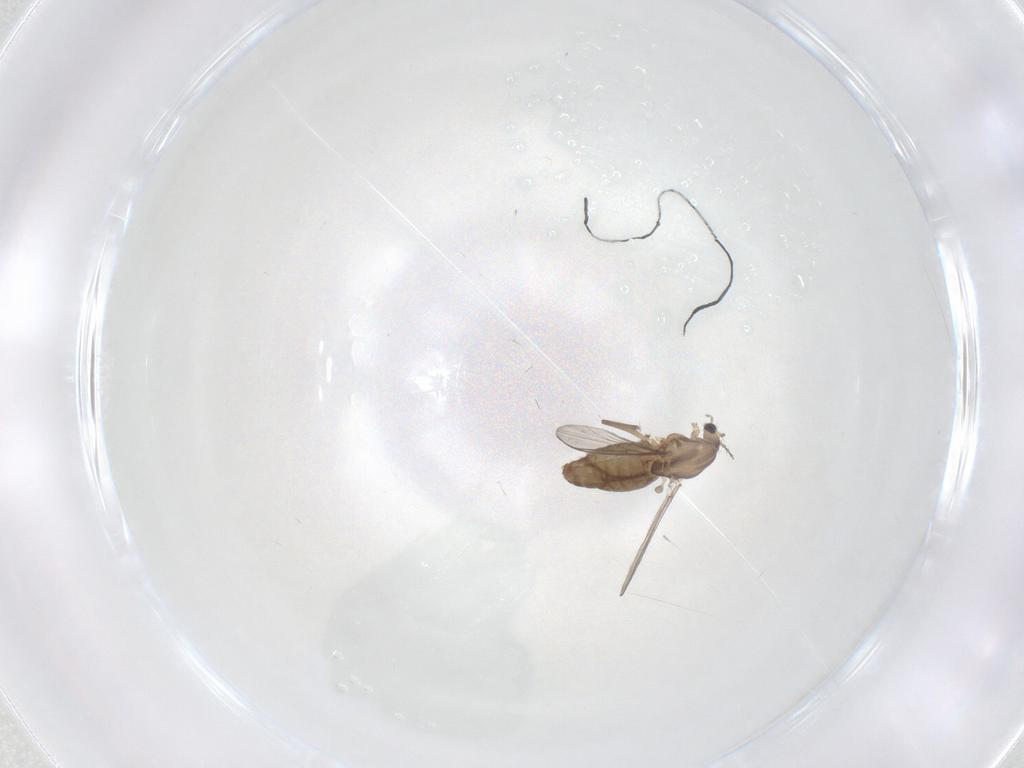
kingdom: Animalia
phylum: Arthropoda
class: Insecta
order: Diptera
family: Chironomidae
